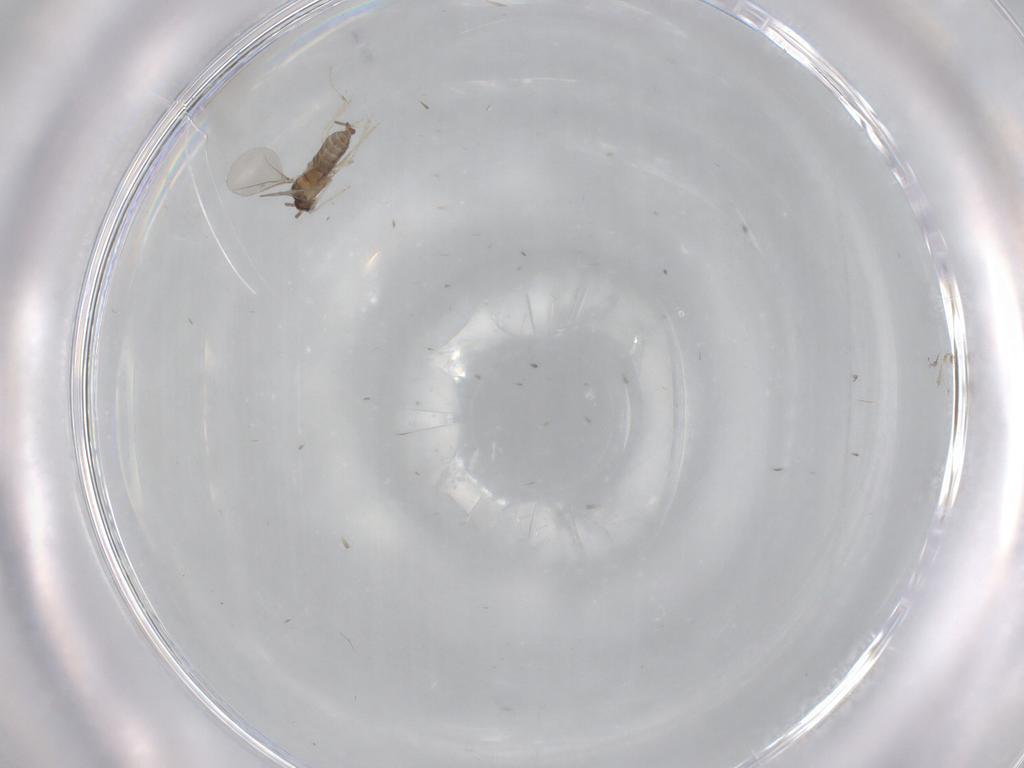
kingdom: Animalia
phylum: Arthropoda
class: Insecta
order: Diptera
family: Cecidomyiidae
